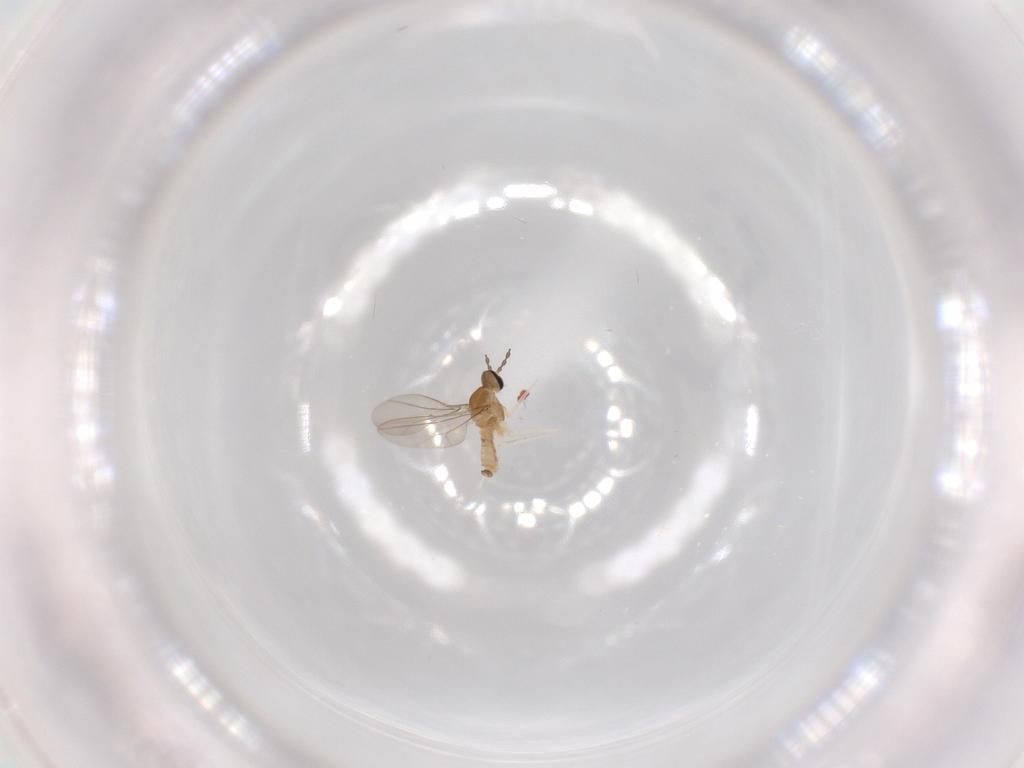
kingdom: Animalia
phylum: Arthropoda
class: Insecta
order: Diptera
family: Cecidomyiidae
